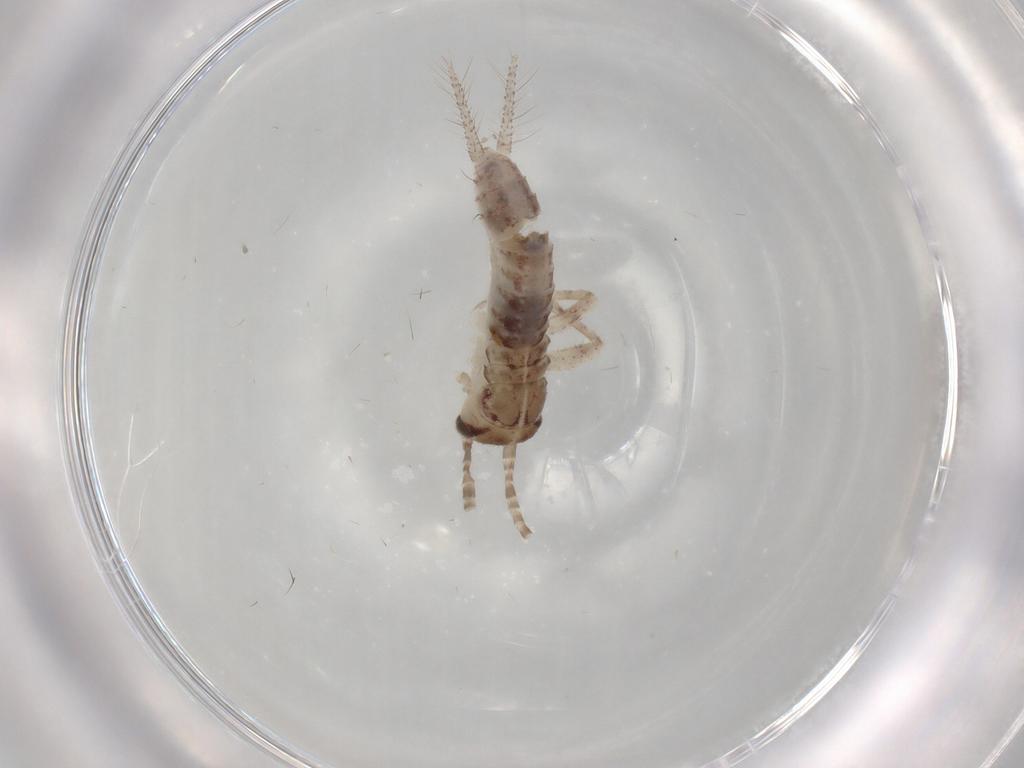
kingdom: Animalia
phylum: Arthropoda
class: Insecta
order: Orthoptera
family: Gryllidae
